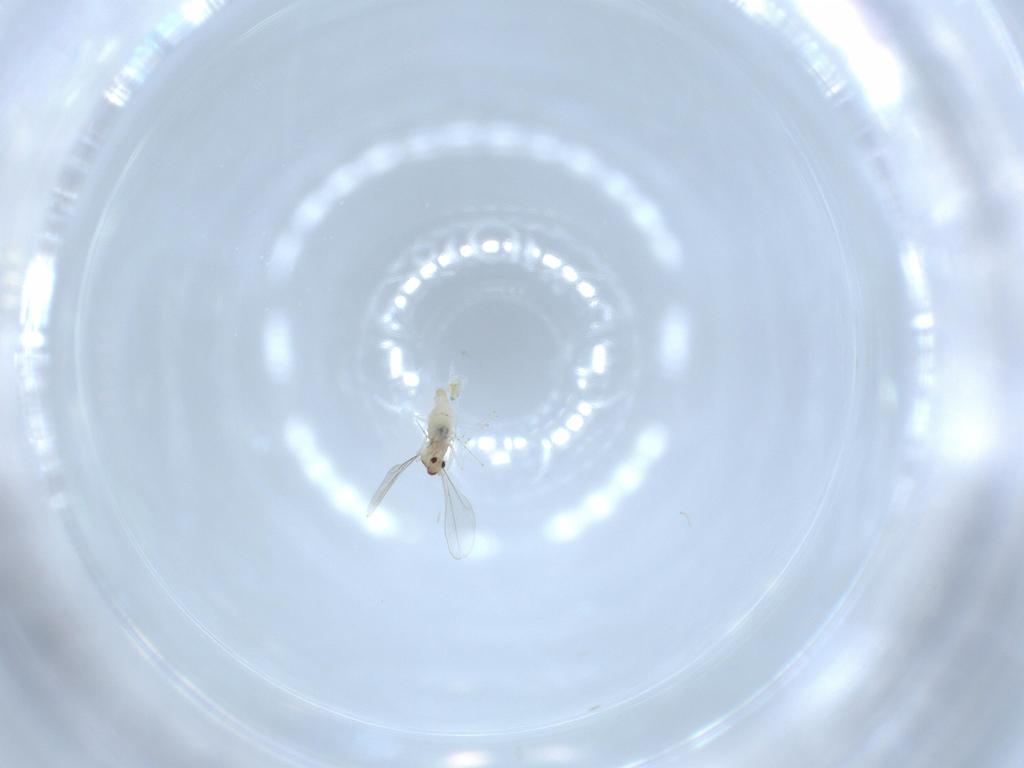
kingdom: Animalia
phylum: Arthropoda
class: Insecta
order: Diptera
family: Cecidomyiidae
